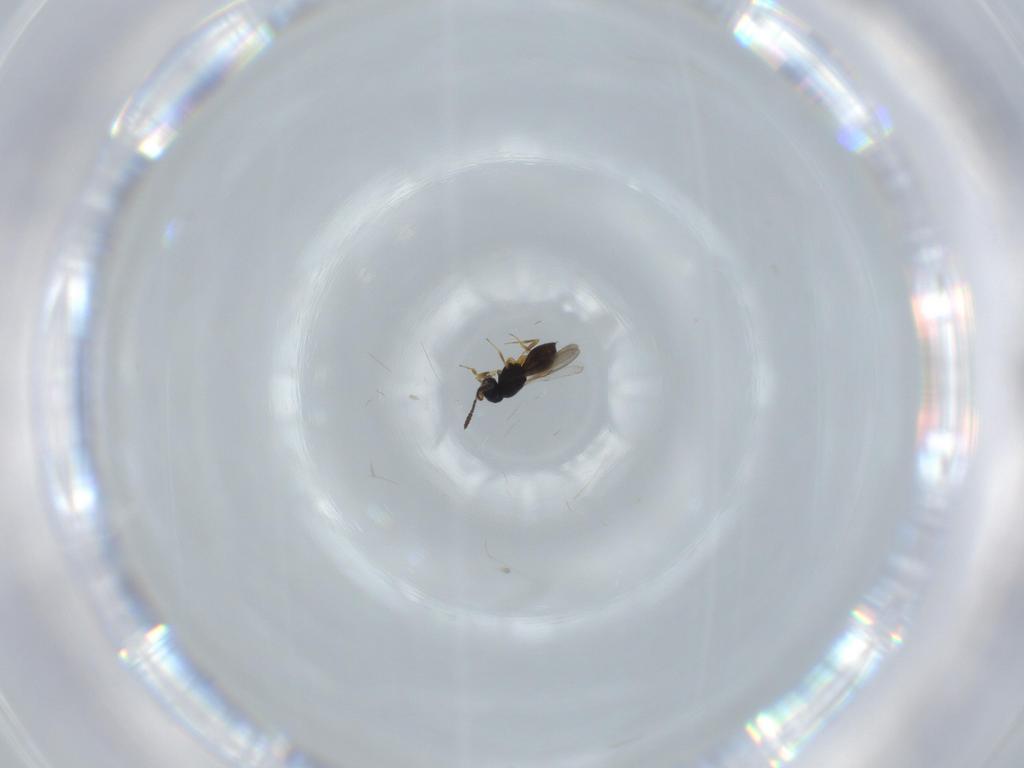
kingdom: Animalia
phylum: Arthropoda
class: Insecta
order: Hymenoptera
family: Scelionidae
